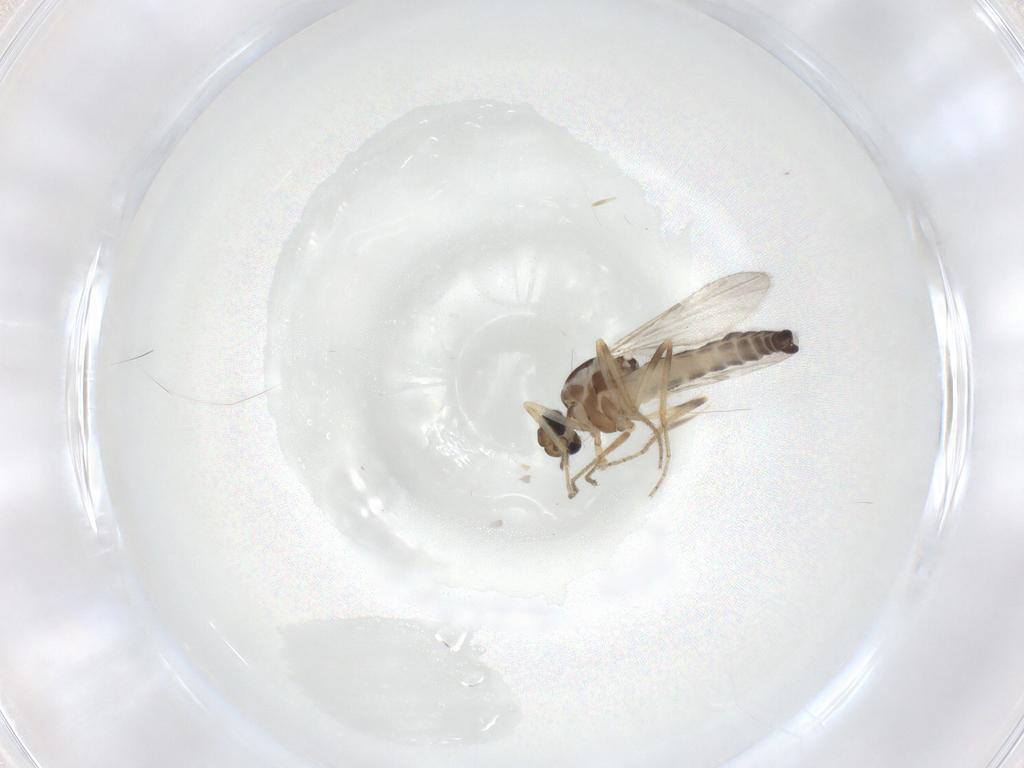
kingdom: Animalia
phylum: Arthropoda
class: Insecta
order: Diptera
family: Ceratopogonidae
